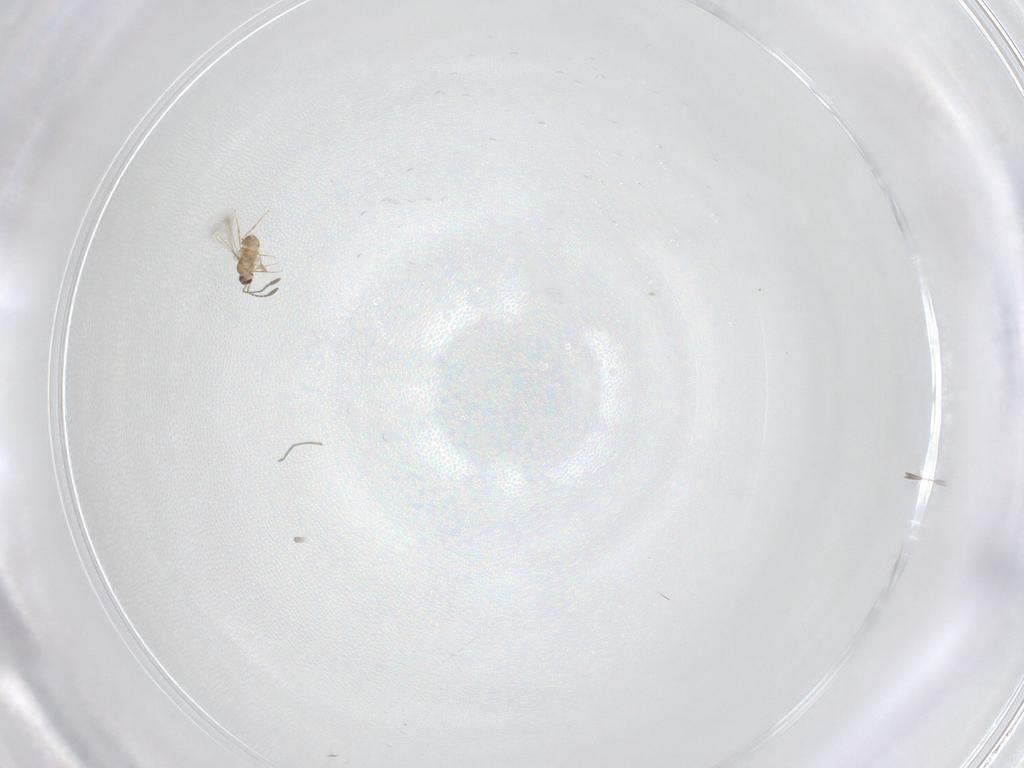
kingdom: Animalia
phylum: Arthropoda
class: Insecta
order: Hymenoptera
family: Mymaridae
